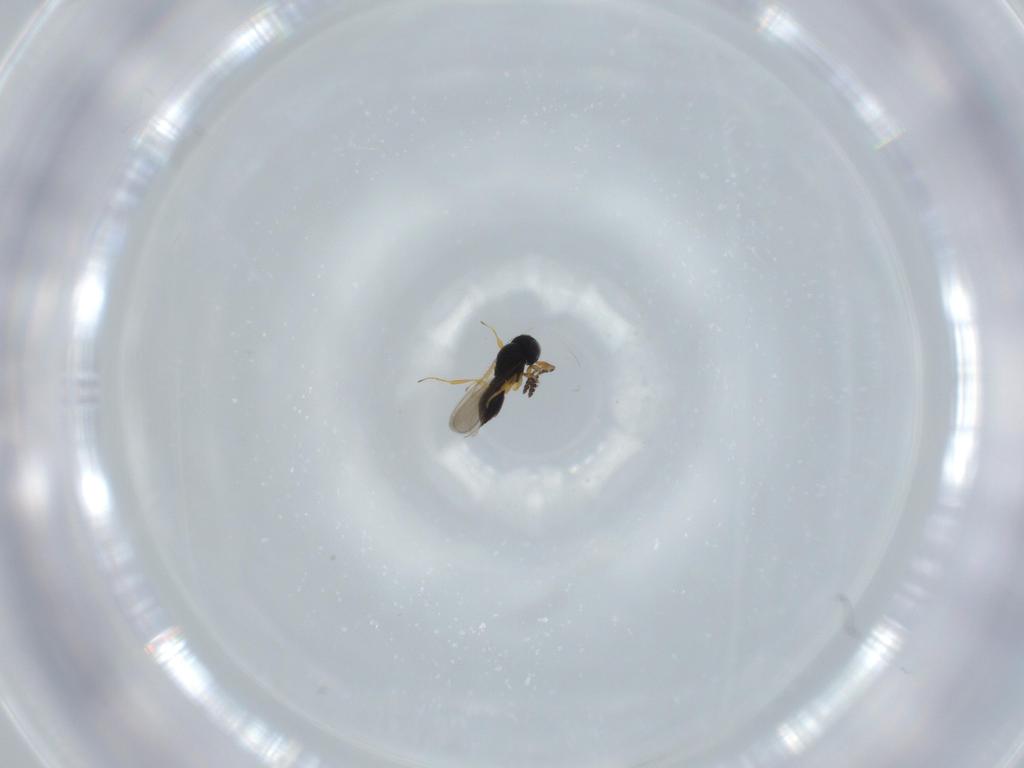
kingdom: Animalia
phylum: Arthropoda
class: Insecta
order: Hymenoptera
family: Scelionidae
